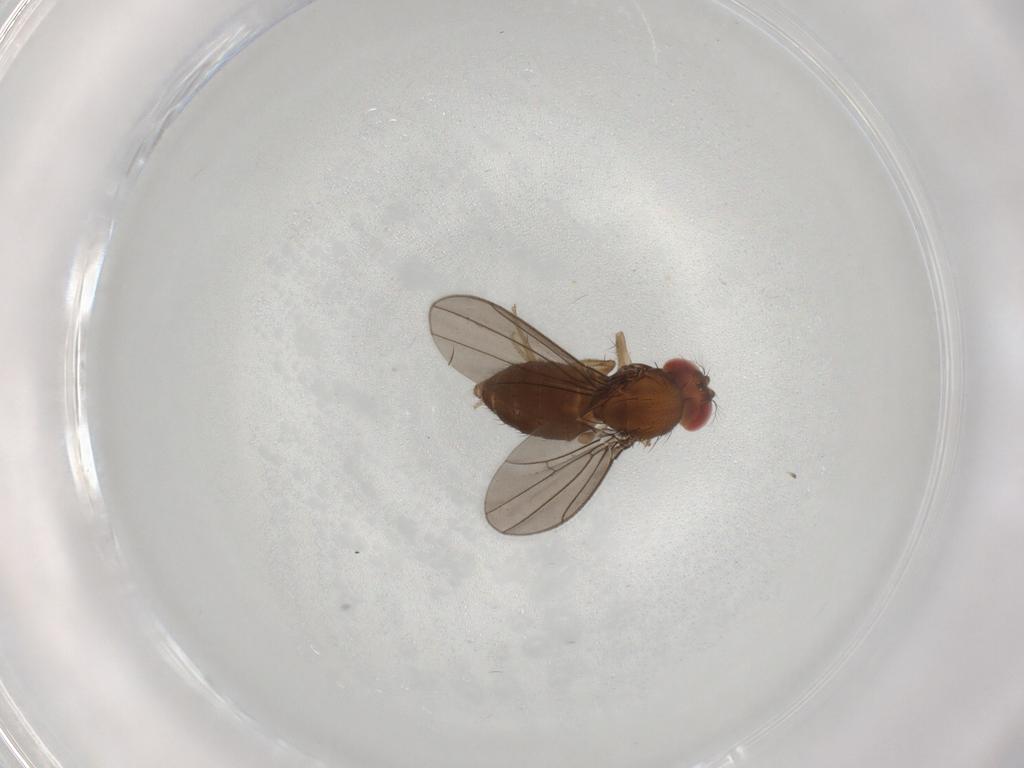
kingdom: Animalia
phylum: Arthropoda
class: Insecta
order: Diptera
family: Drosophilidae
